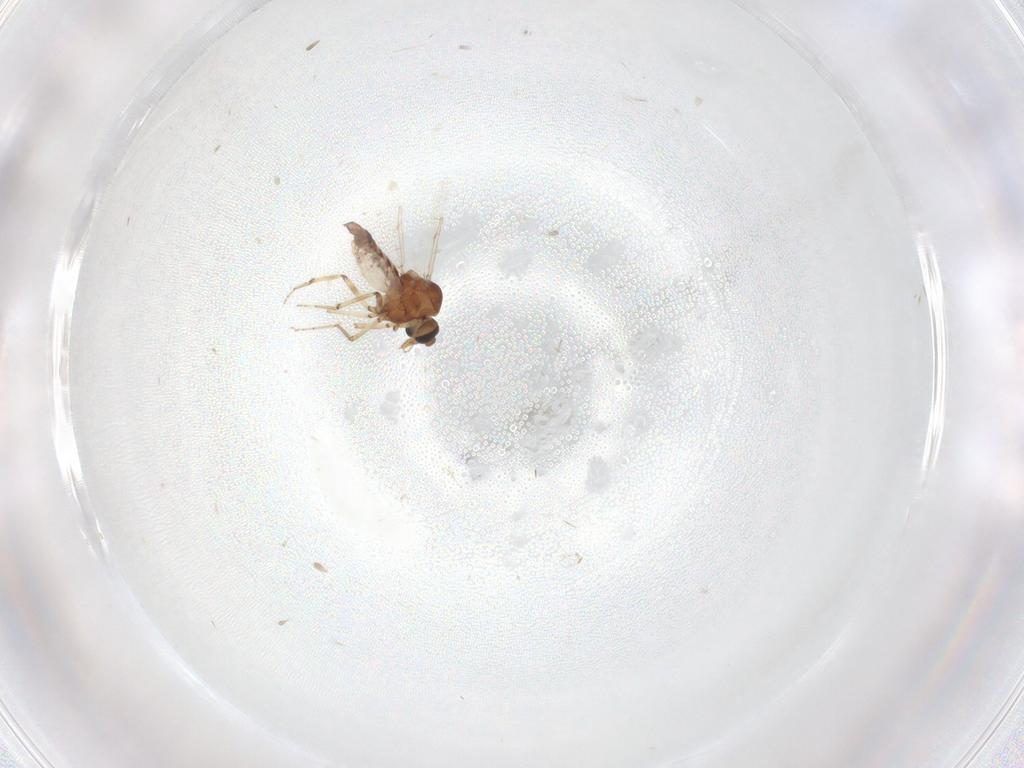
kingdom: Animalia
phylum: Arthropoda
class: Insecta
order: Diptera
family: Ceratopogonidae
